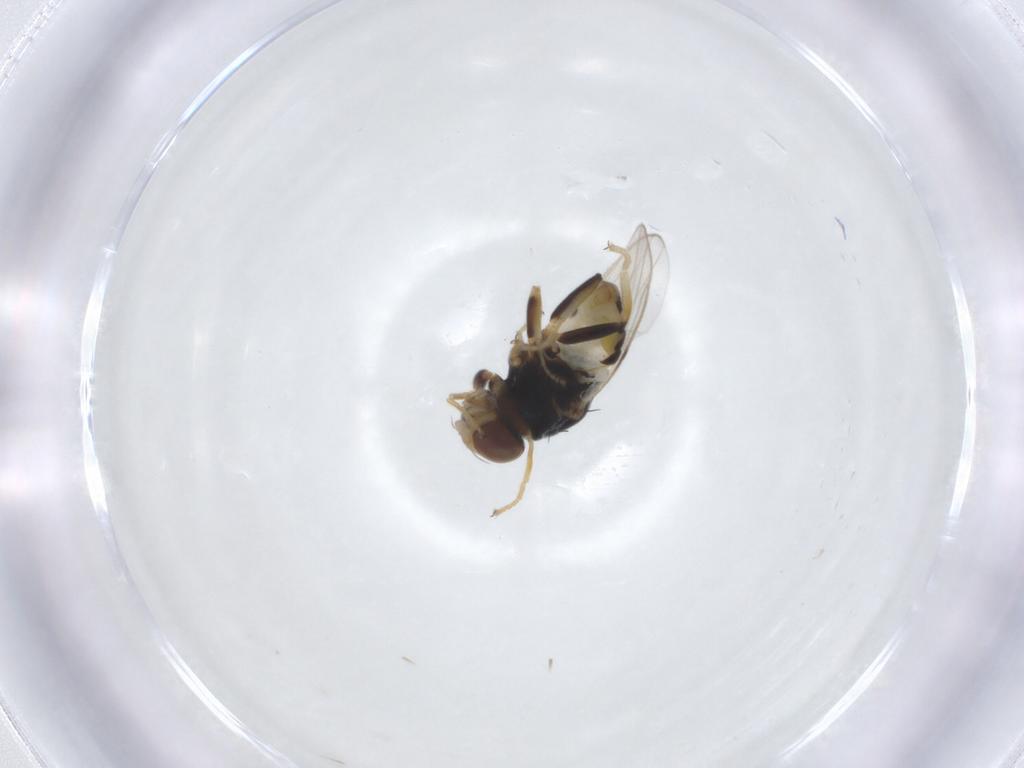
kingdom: Animalia
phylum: Arthropoda
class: Insecta
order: Diptera
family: Chloropidae
